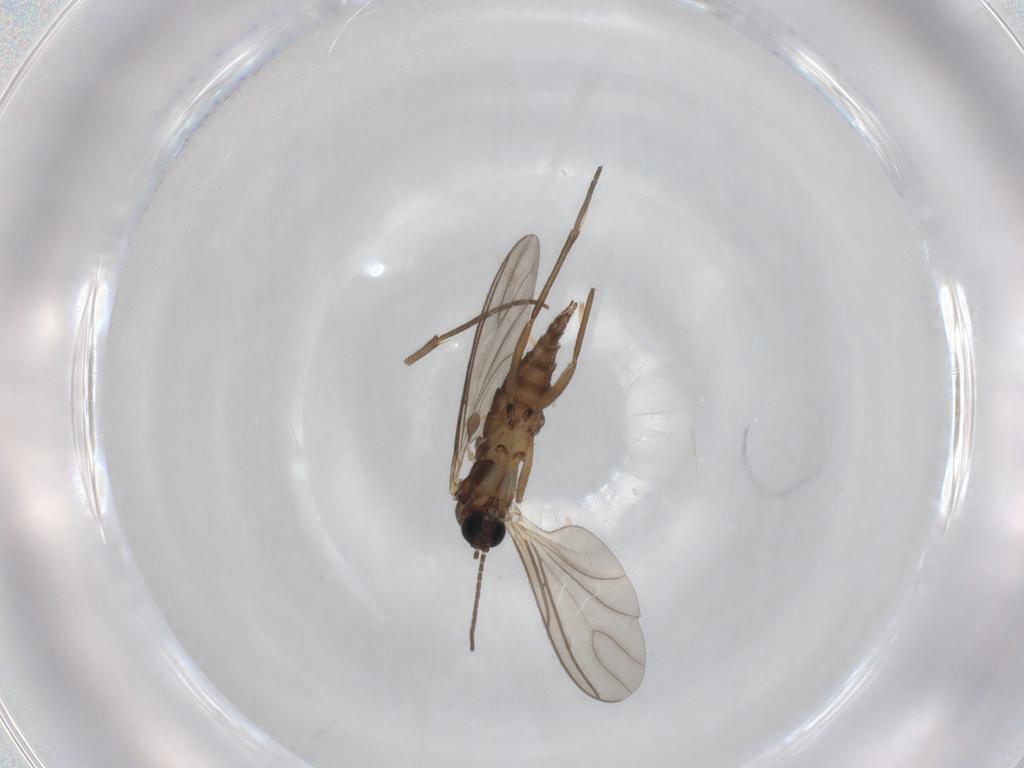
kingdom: Animalia
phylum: Arthropoda
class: Insecta
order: Diptera
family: Sciaridae
